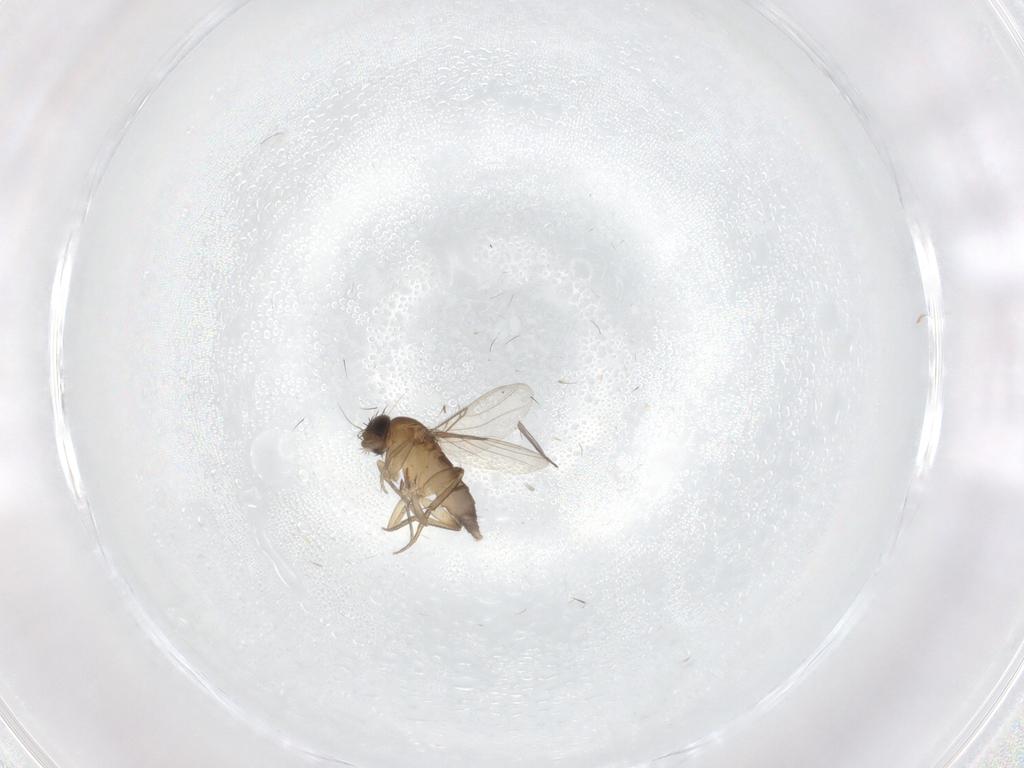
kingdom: Animalia
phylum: Arthropoda
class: Insecta
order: Diptera
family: Phoridae
